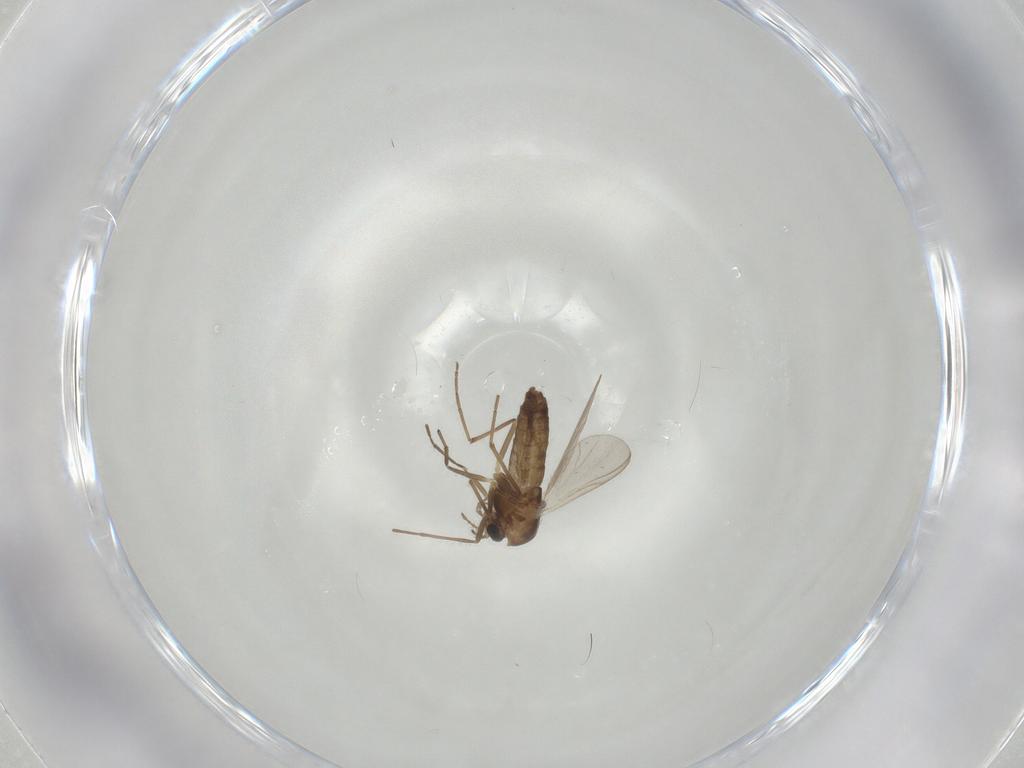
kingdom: Animalia
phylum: Arthropoda
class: Insecta
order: Diptera
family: Chironomidae
